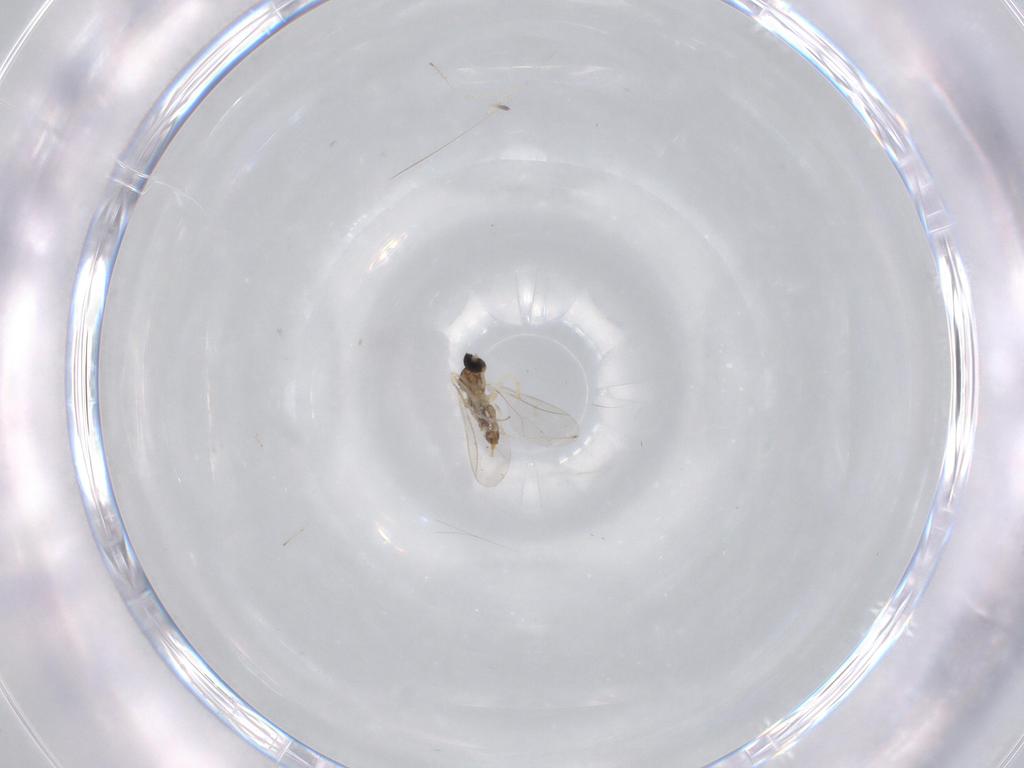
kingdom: Animalia
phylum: Arthropoda
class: Insecta
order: Diptera
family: Cecidomyiidae
